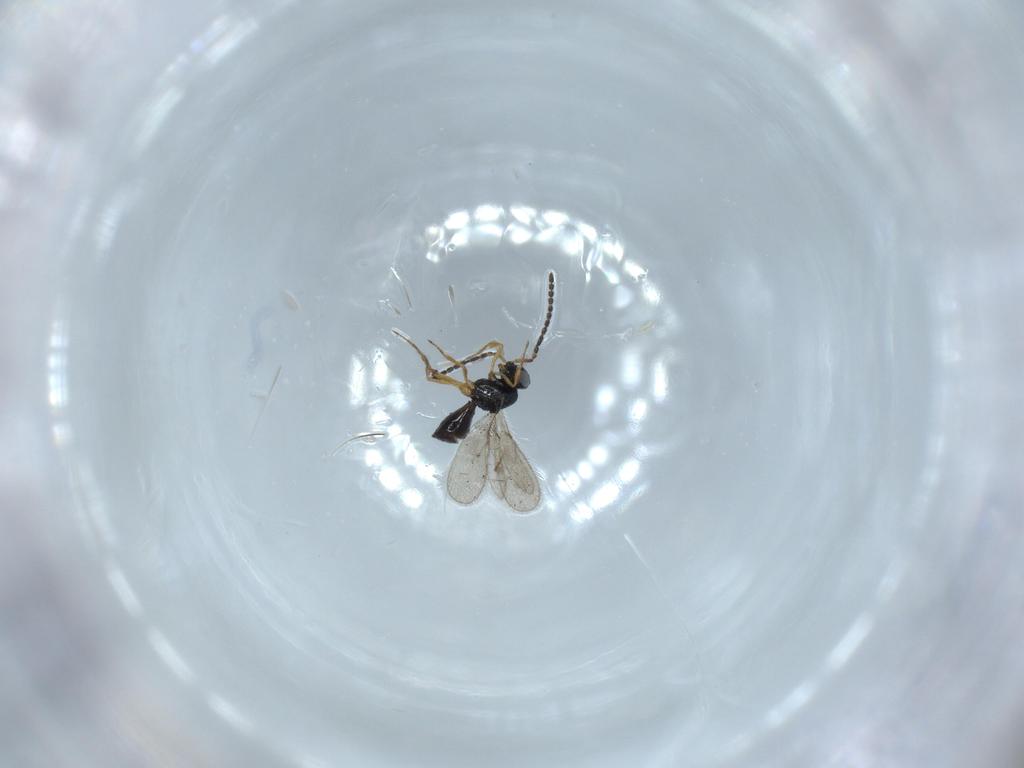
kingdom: Animalia
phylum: Arthropoda
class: Insecta
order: Hymenoptera
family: Scelionidae
